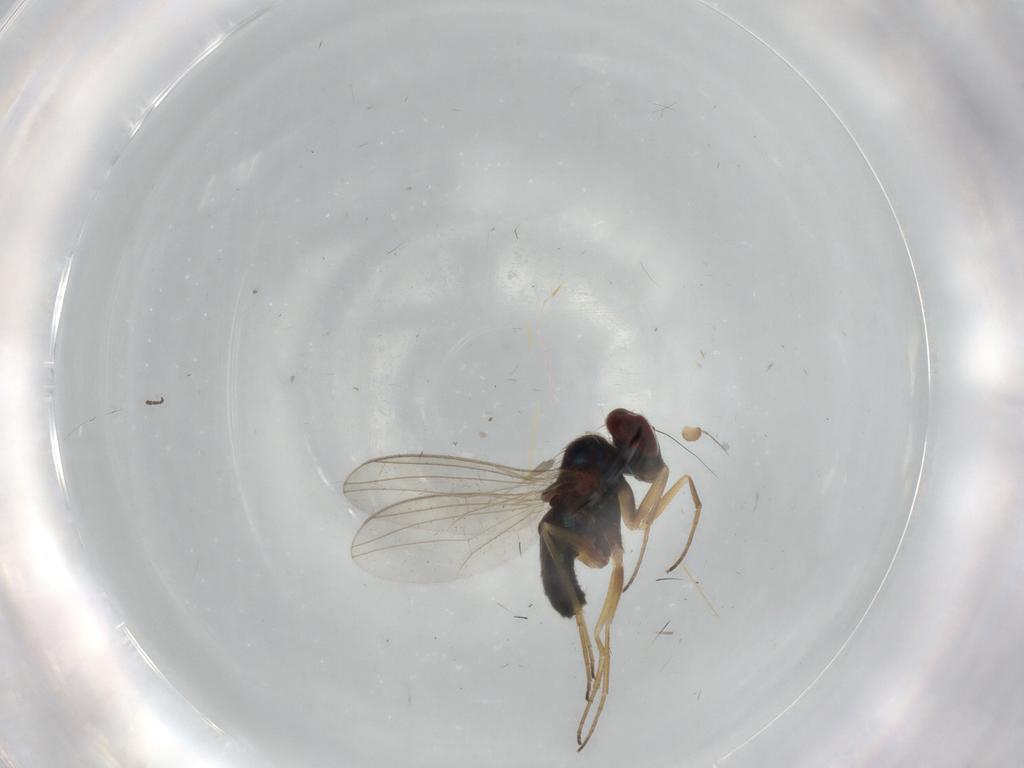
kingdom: Animalia
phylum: Arthropoda
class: Insecta
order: Diptera
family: Cecidomyiidae
